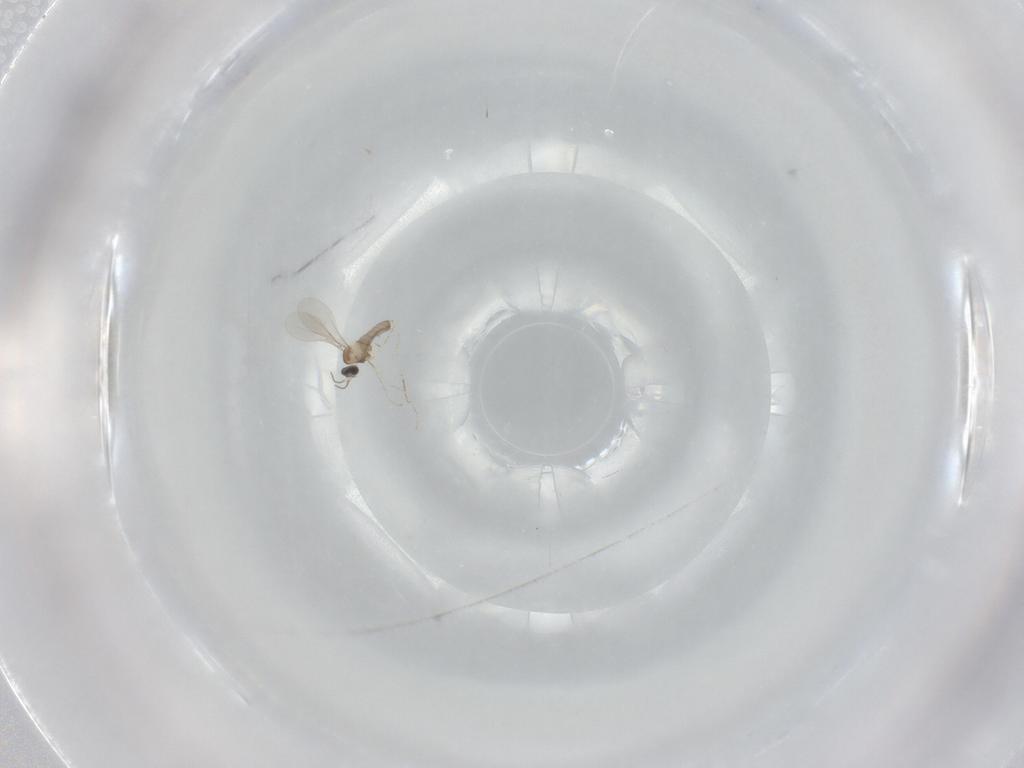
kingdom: Animalia
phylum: Arthropoda
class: Insecta
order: Diptera
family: Cecidomyiidae
